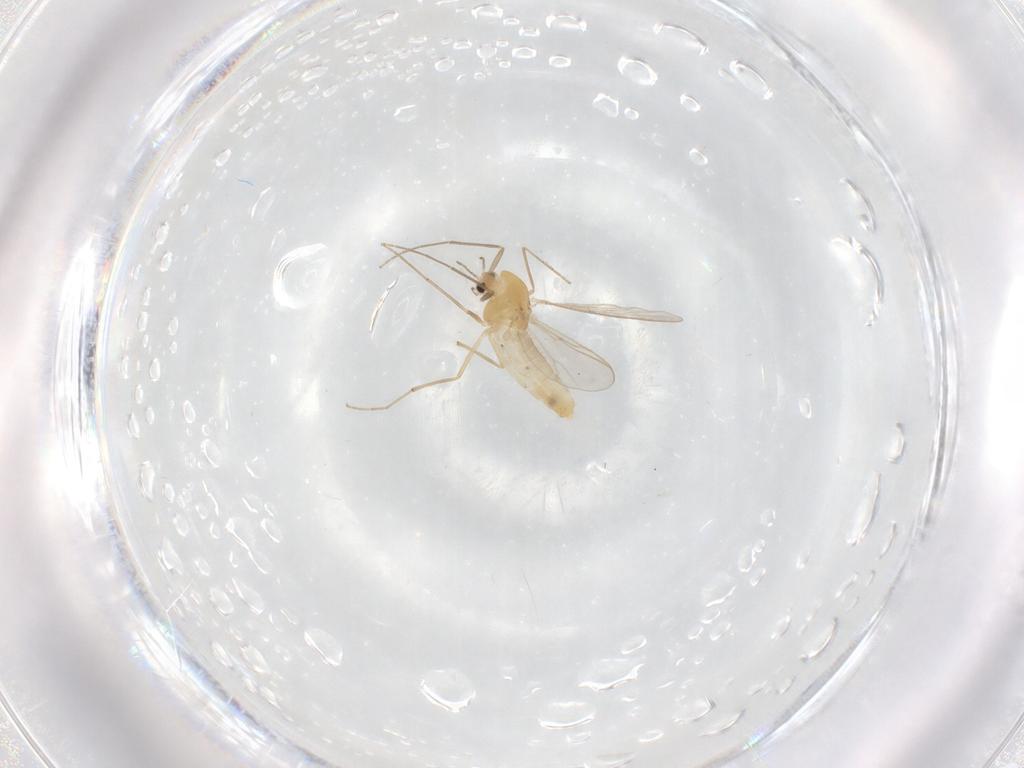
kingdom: Animalia
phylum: Arthropoda
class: Insecta
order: Diptera
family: Chironomidae
